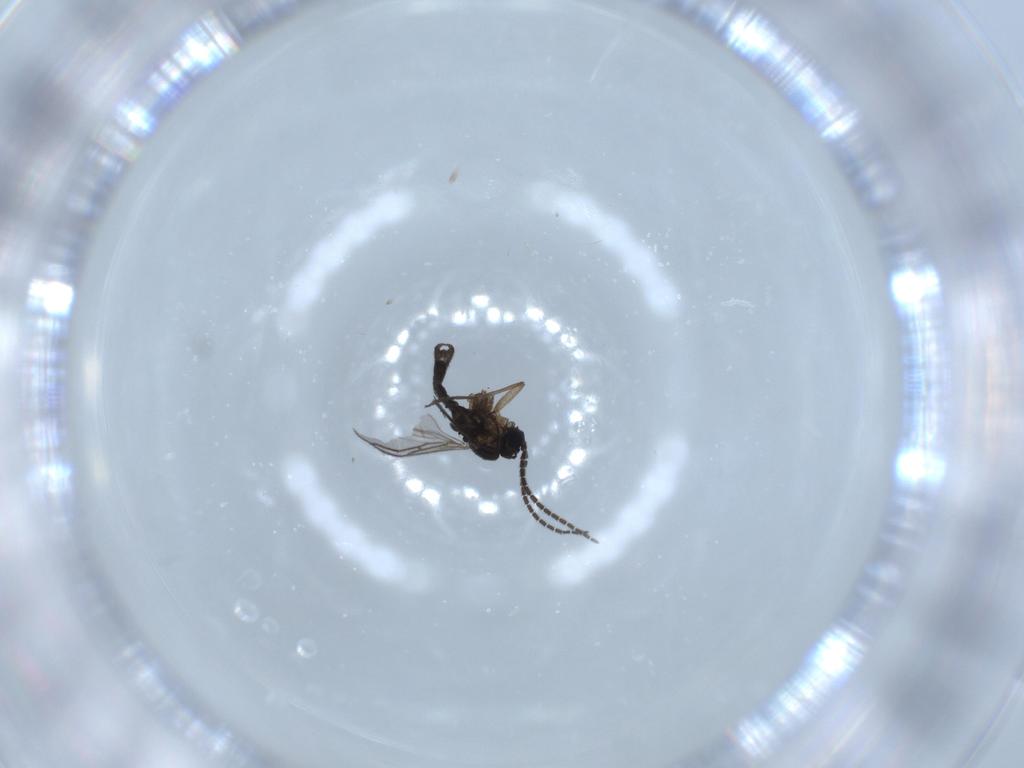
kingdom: Animalia
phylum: Arthropoda
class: Insecta
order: Diptera
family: Sciaridae
